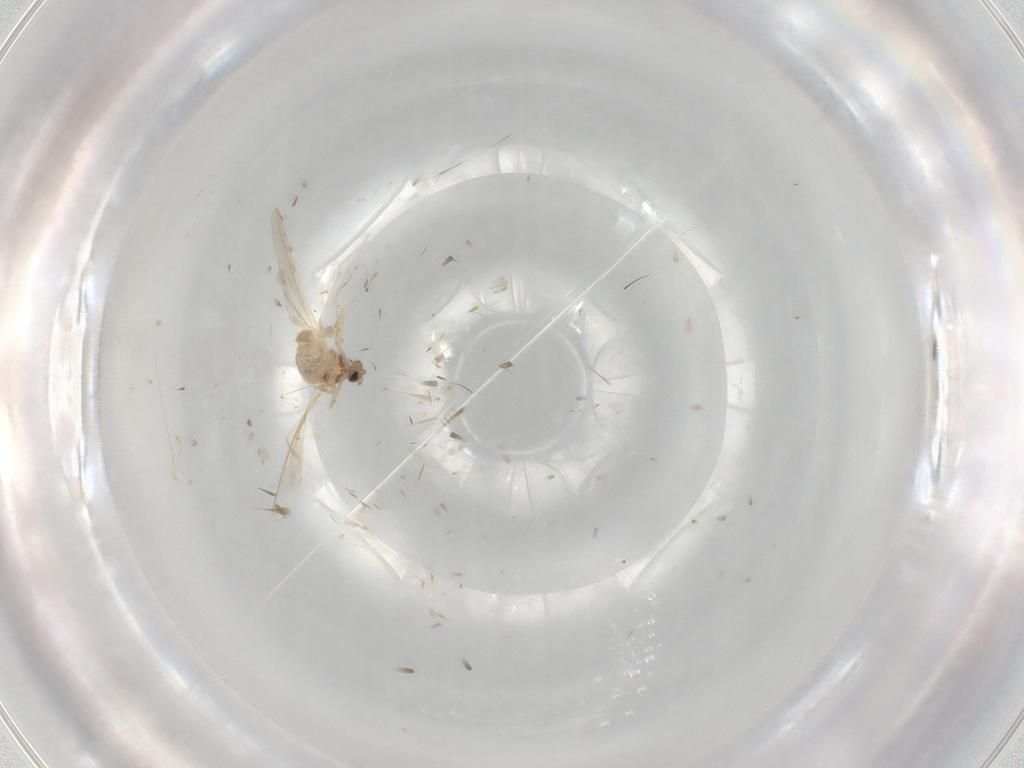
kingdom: Animalia
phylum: Arthropoda
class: Insecta
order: Diptera
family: Cecidomyiidae
